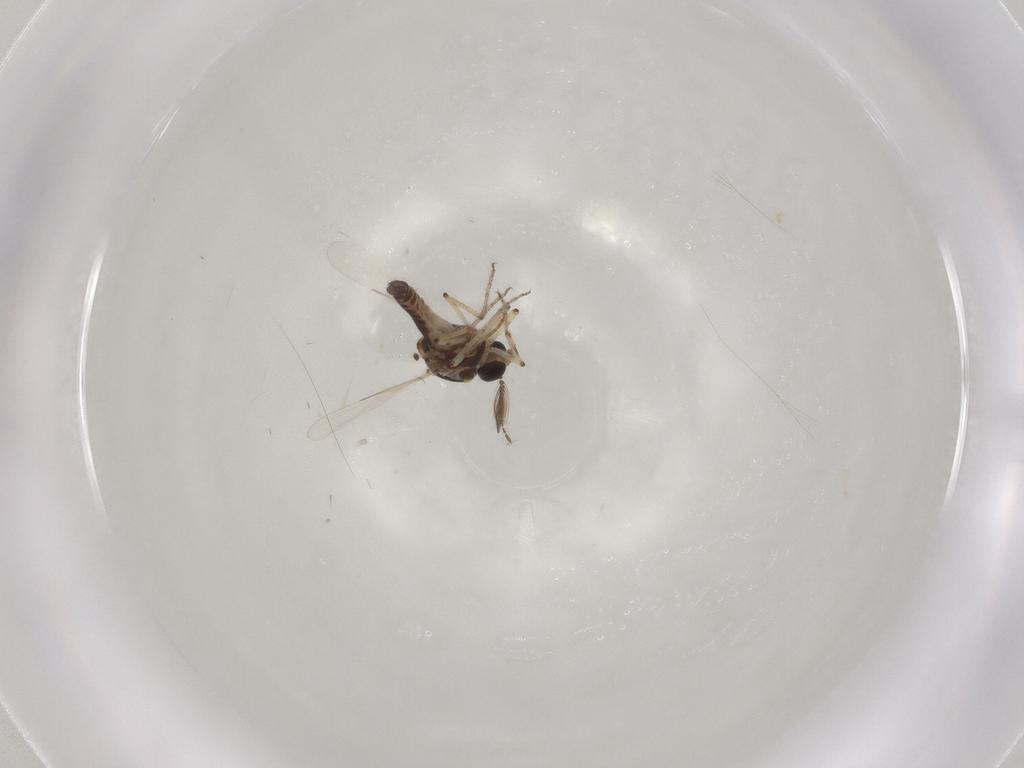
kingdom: Animalia
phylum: Arthropoda
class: Insecta
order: Diptera
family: Ceratopogonidae
